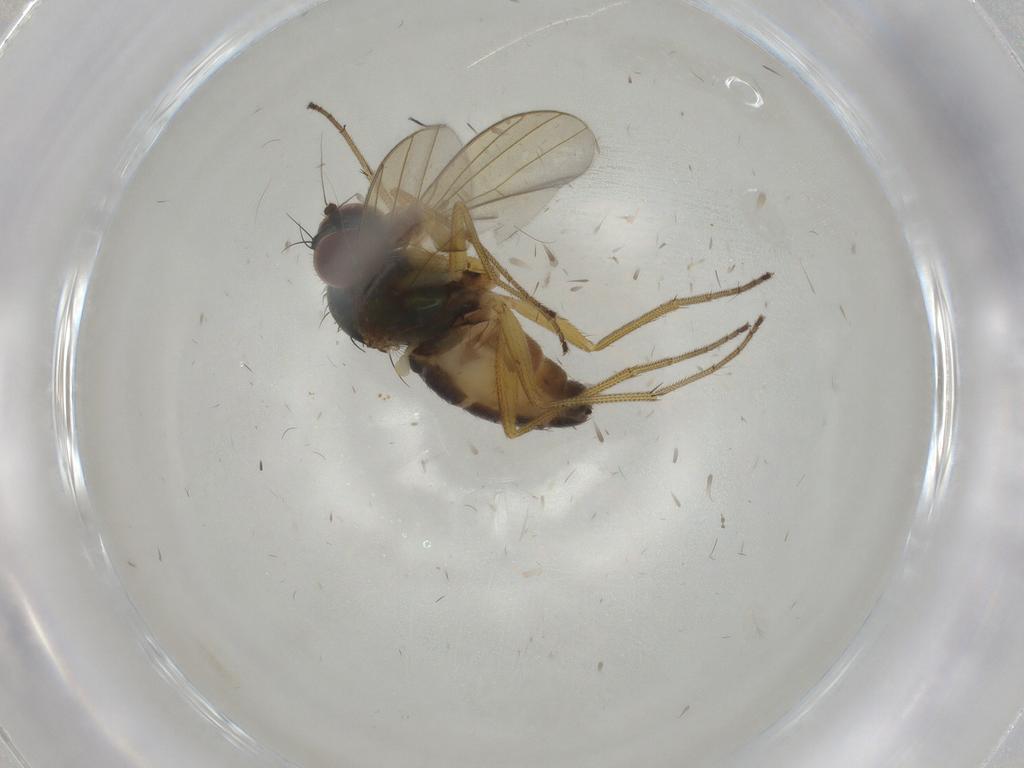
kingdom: Animalia
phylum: Arthropoda
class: Insecta
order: Diptera
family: Dolichopodidae
